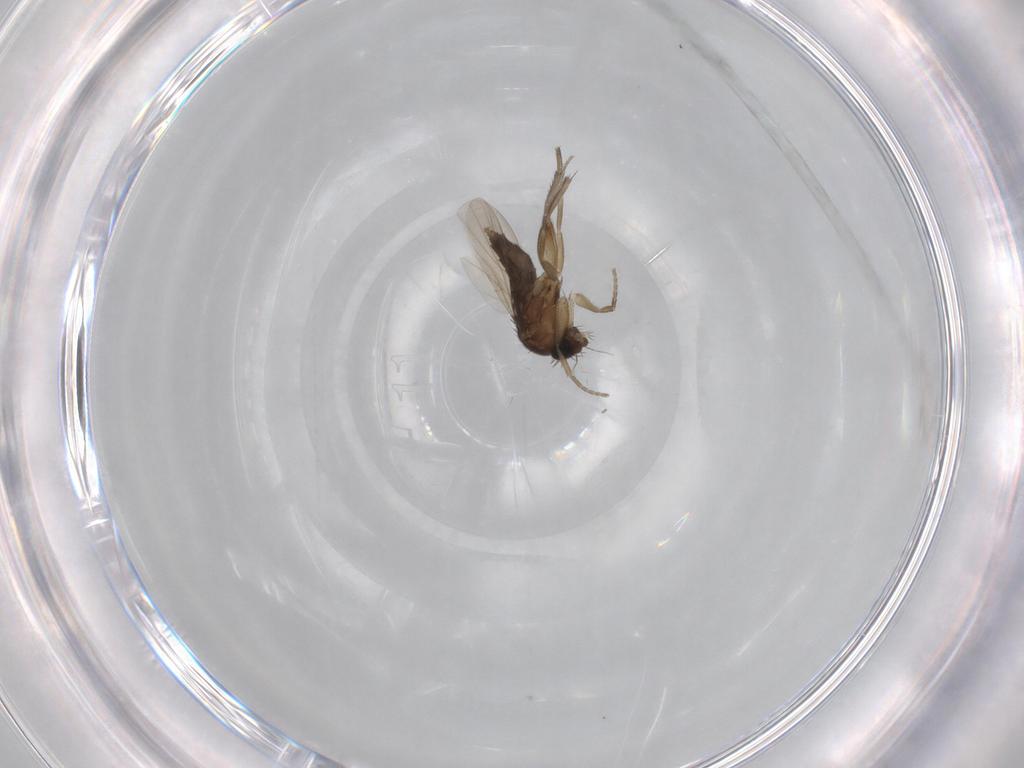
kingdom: Animalia
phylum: Arthropoda
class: Insecta
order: Diptera
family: Phoridae
